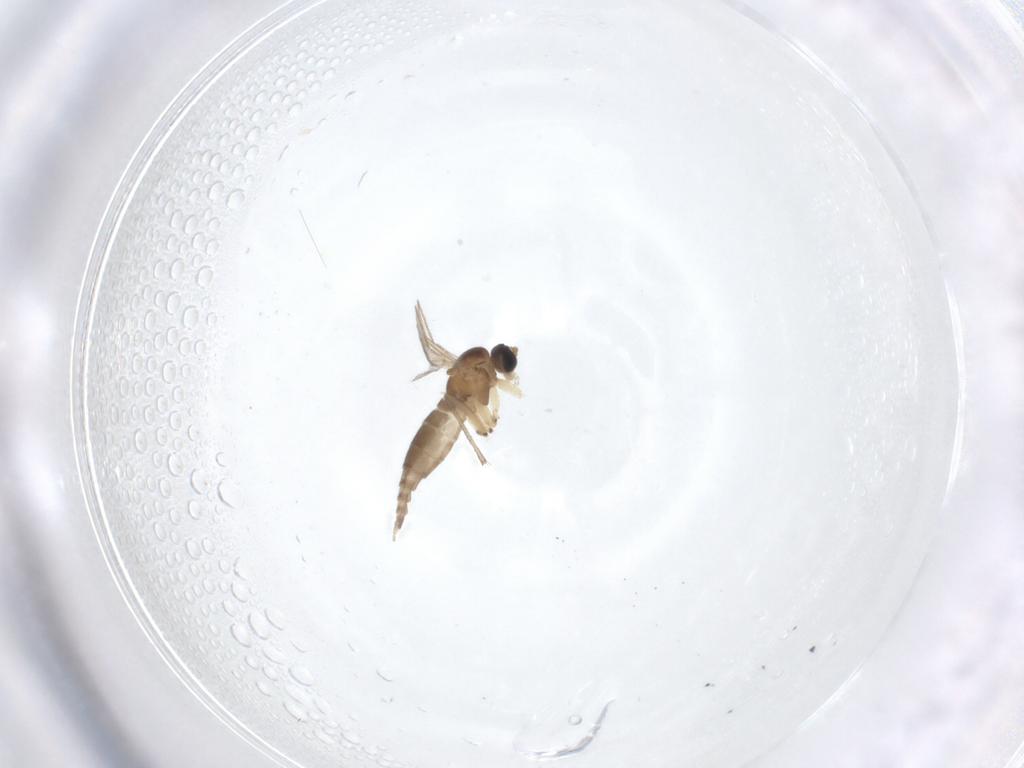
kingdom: Animalia
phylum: Arthropoda
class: Insecta
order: Diptera
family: Sciaridae
